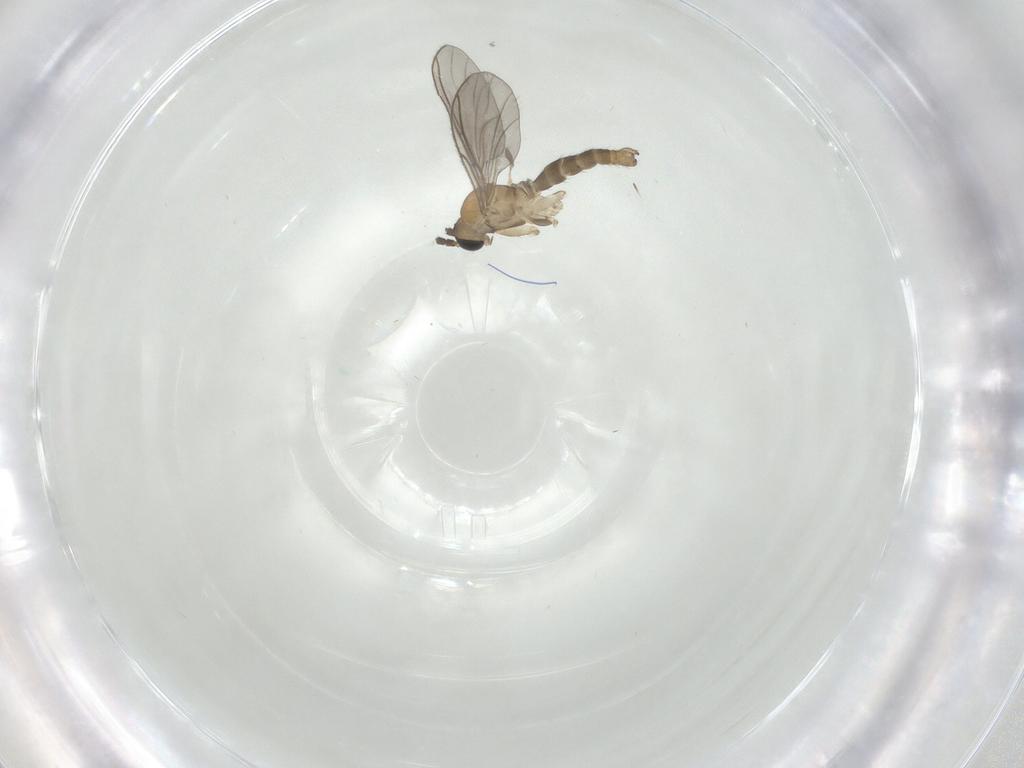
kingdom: Animalia
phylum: Arthropoda
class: Insecta
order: Diptera
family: Sciaridae
